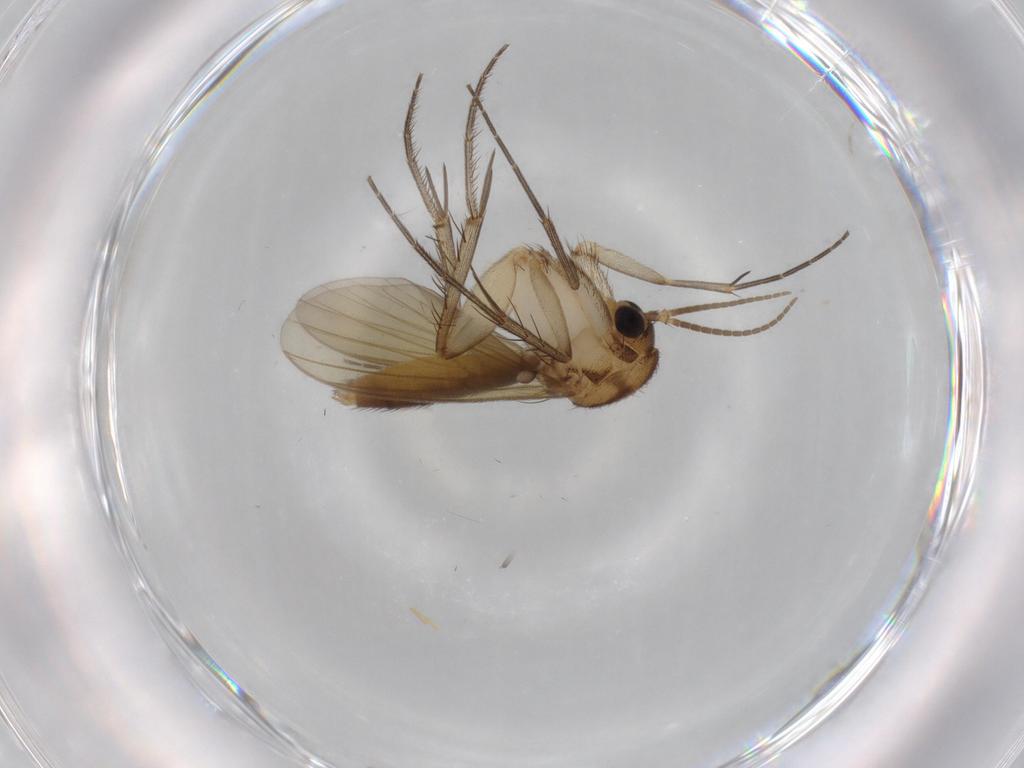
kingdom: Animalia
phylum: Arthropoda
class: Insecta
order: Diptera
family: Mycetophilidae
